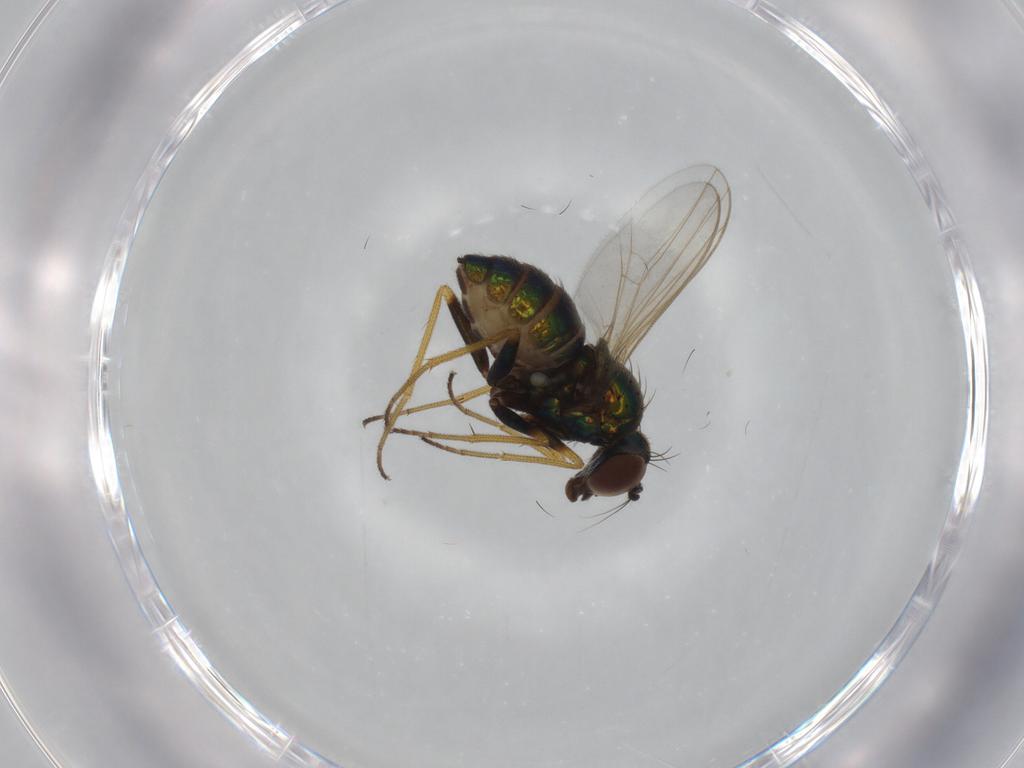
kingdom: Animalia
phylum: Arthropoda
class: Insecta
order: Diptera
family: Dolichopodidae
